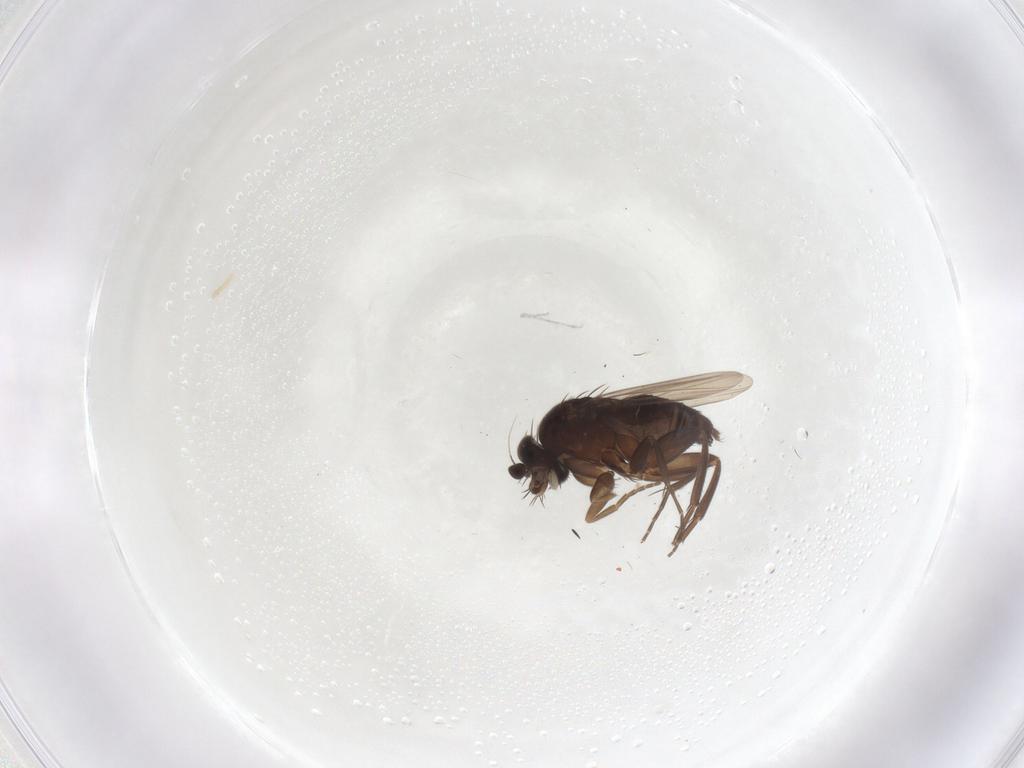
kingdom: Animalia
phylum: Arthropoda
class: Insecta
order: Diptera
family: Phoridae
